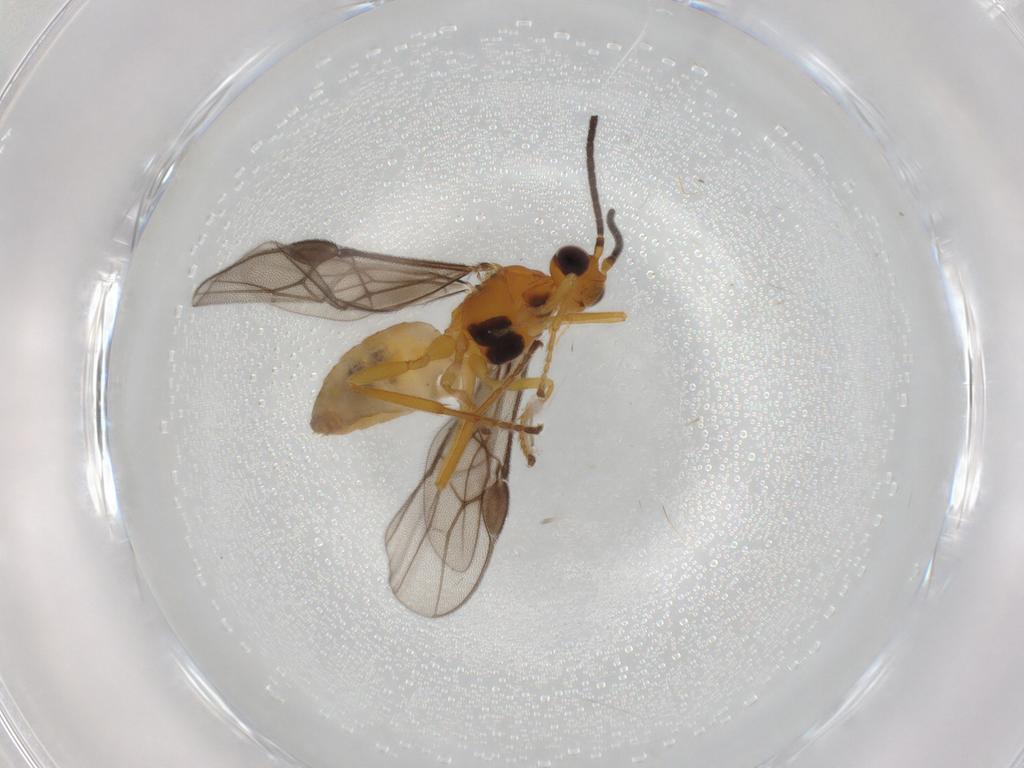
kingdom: Animalia
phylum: Arthropoda
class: Insecta
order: Hymenoptera
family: Braconidae
